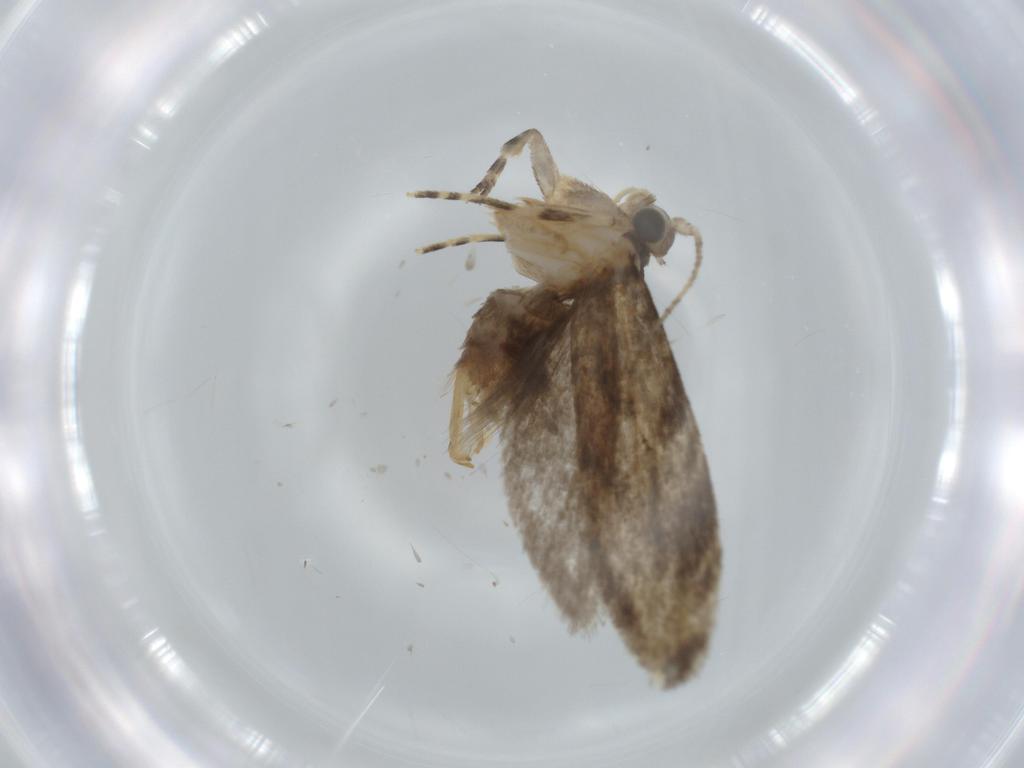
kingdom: Animalia
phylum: Arthropoda
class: Insecta
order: Lepidoptera
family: Tineidae
